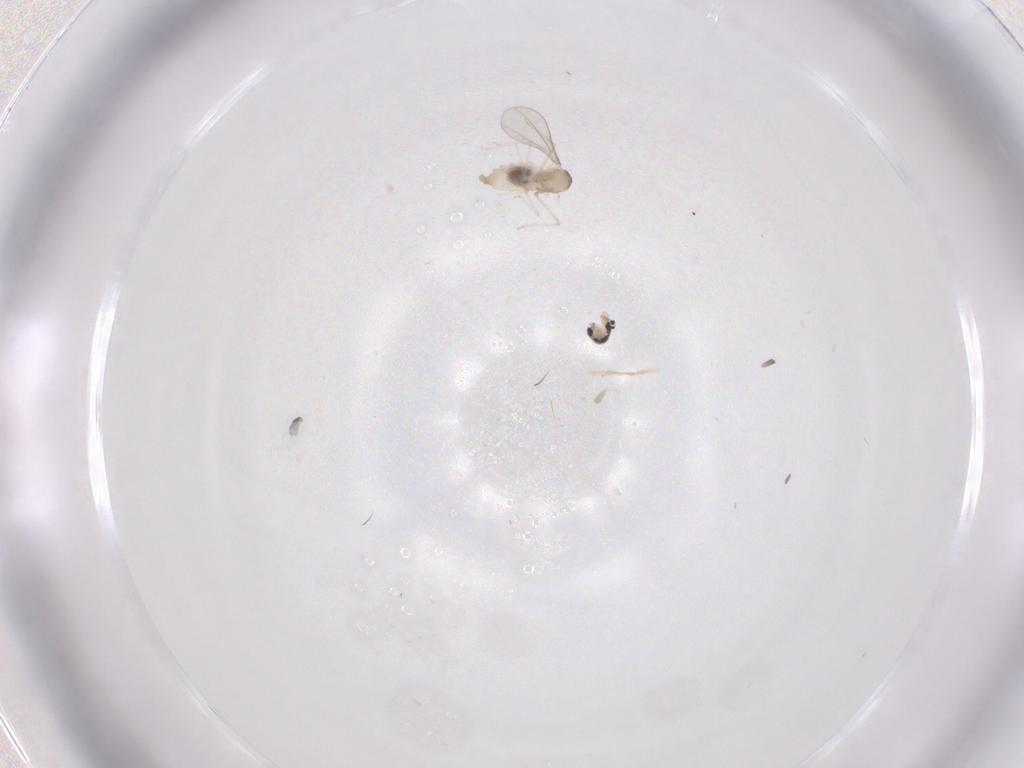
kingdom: Animalia
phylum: Arthropoda
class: Insecta
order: Diptera
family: Cecidomyiidae
